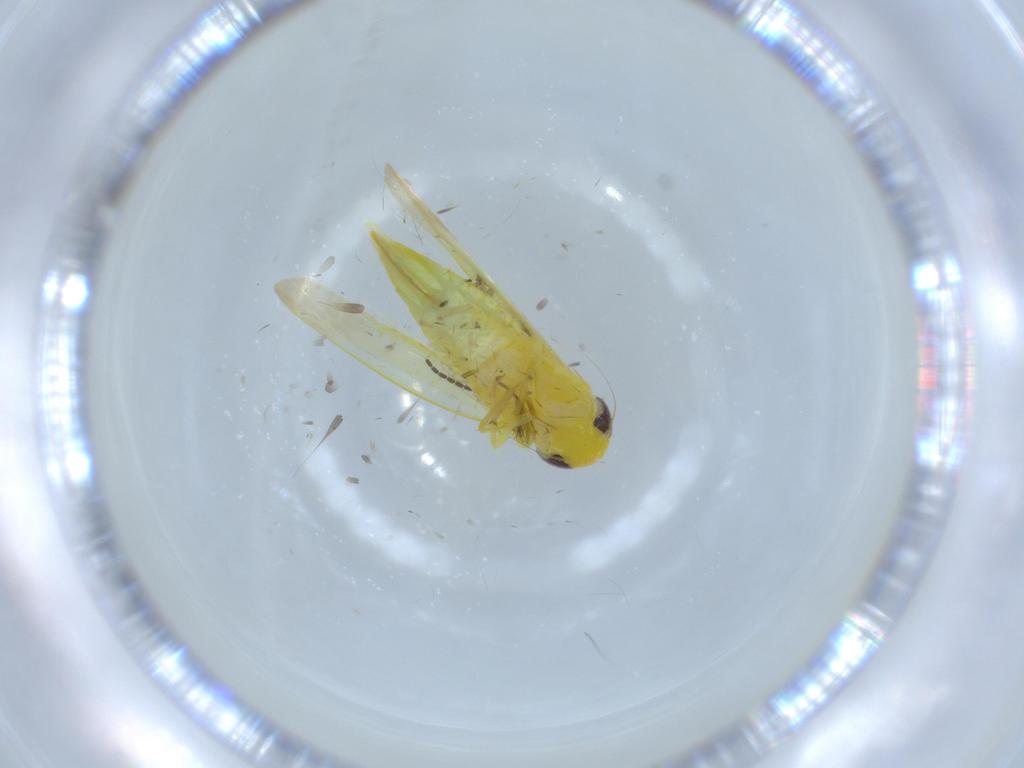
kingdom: Animalia
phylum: Arthropoda
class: Insecta
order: Hemiptera
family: Cicadellidae
